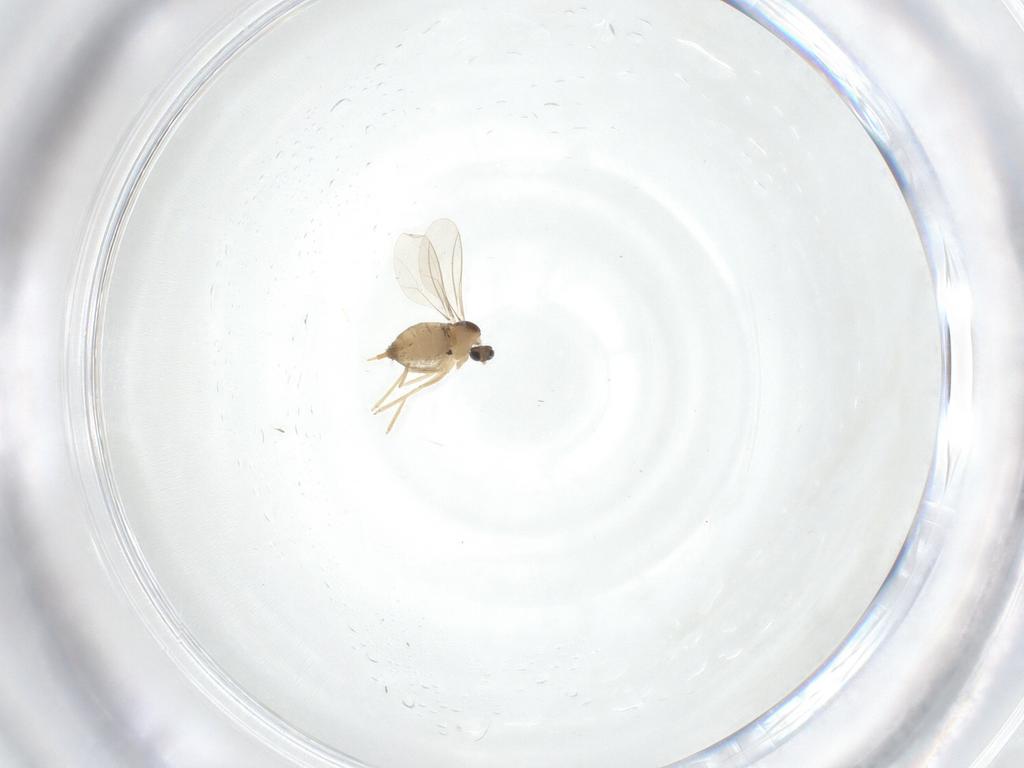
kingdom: Animalia
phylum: Arthropoda
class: Insecta
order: Diptera
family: Cecidomyiidae
